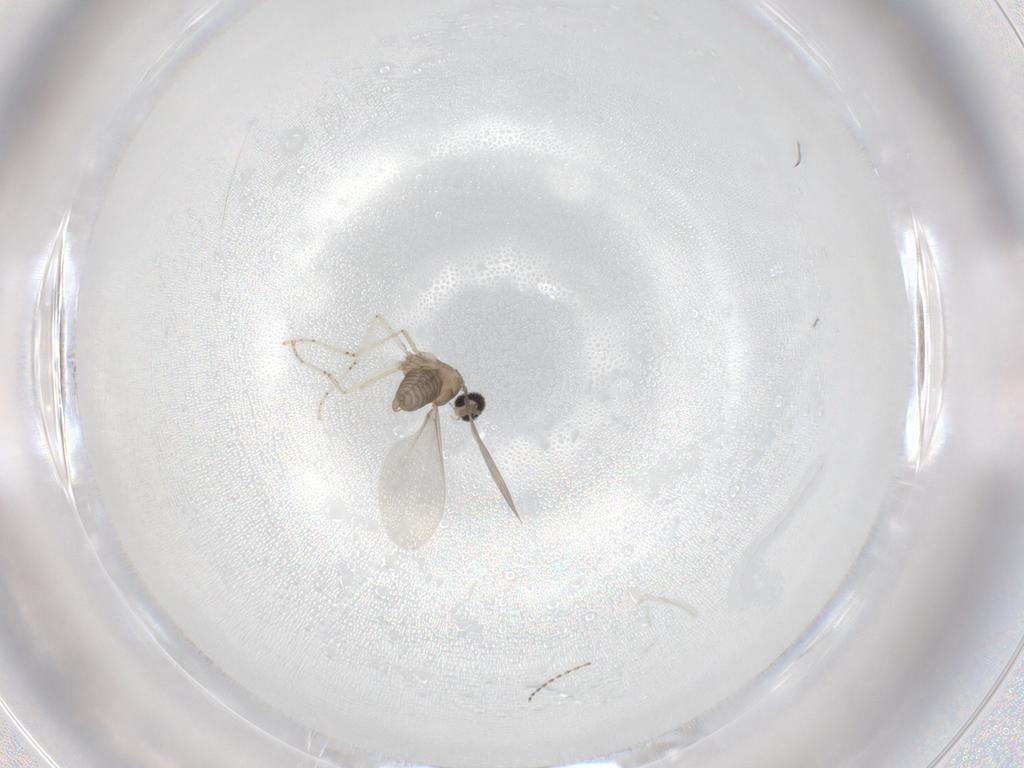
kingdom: Animalia
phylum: Arthropoda
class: Insecta
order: Diptera
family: Cecidomyiidae
